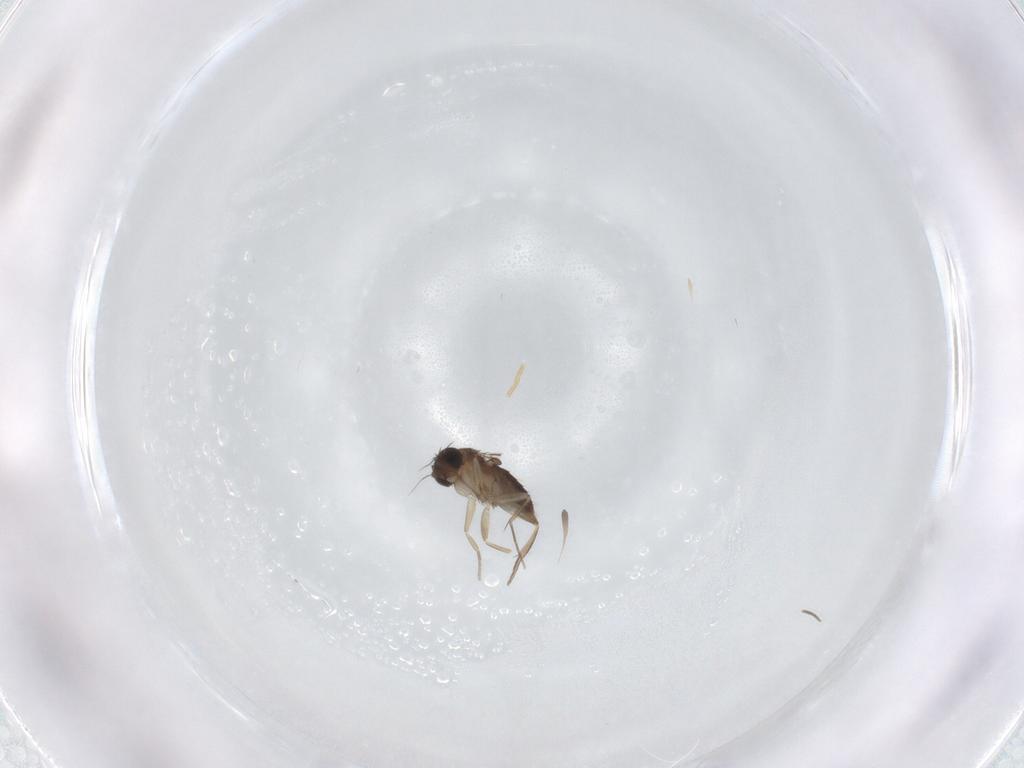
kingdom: Animalia
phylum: Arthropoda
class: Insecta
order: Diptera
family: Phoridae
